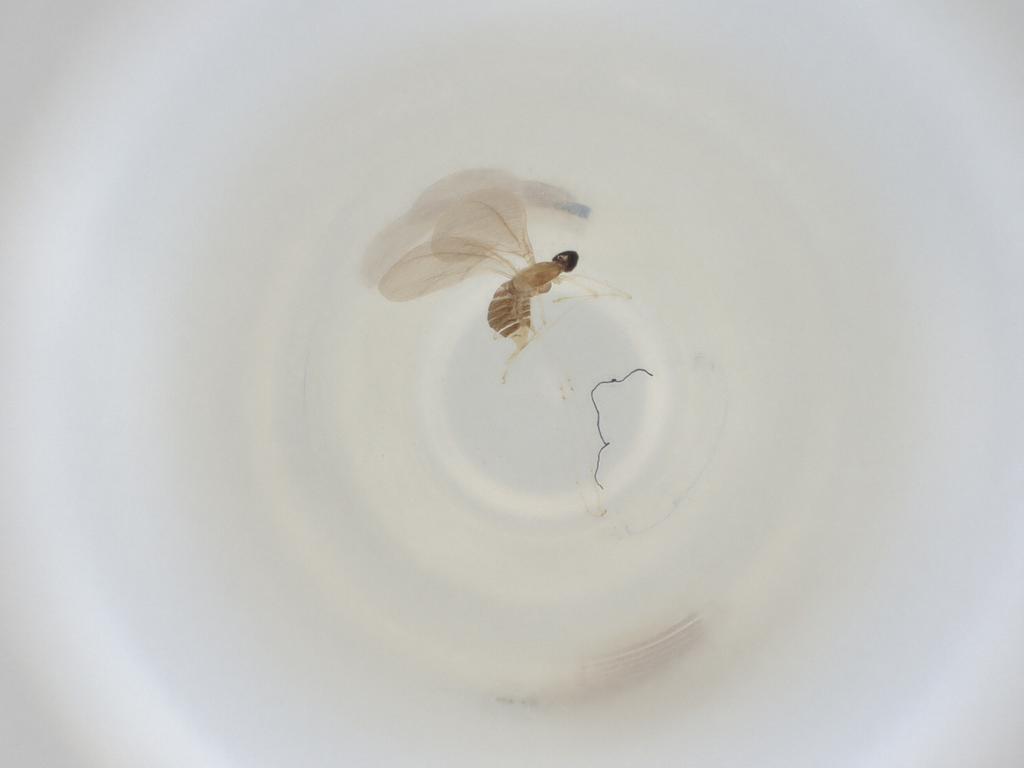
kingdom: Animalia
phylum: Arthropoda
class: Insecta
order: Diptera
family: Cecidomyiidae
